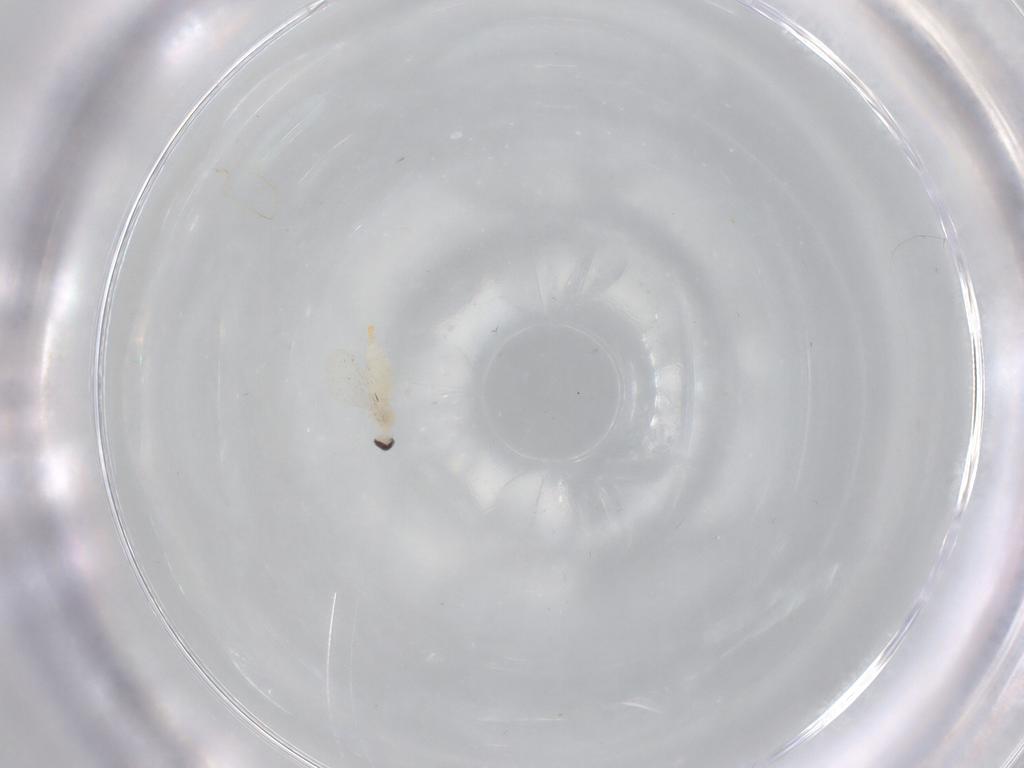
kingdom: Animalia
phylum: Arthropoda
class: Insecta
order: Diptera
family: Cecidomyiidae
